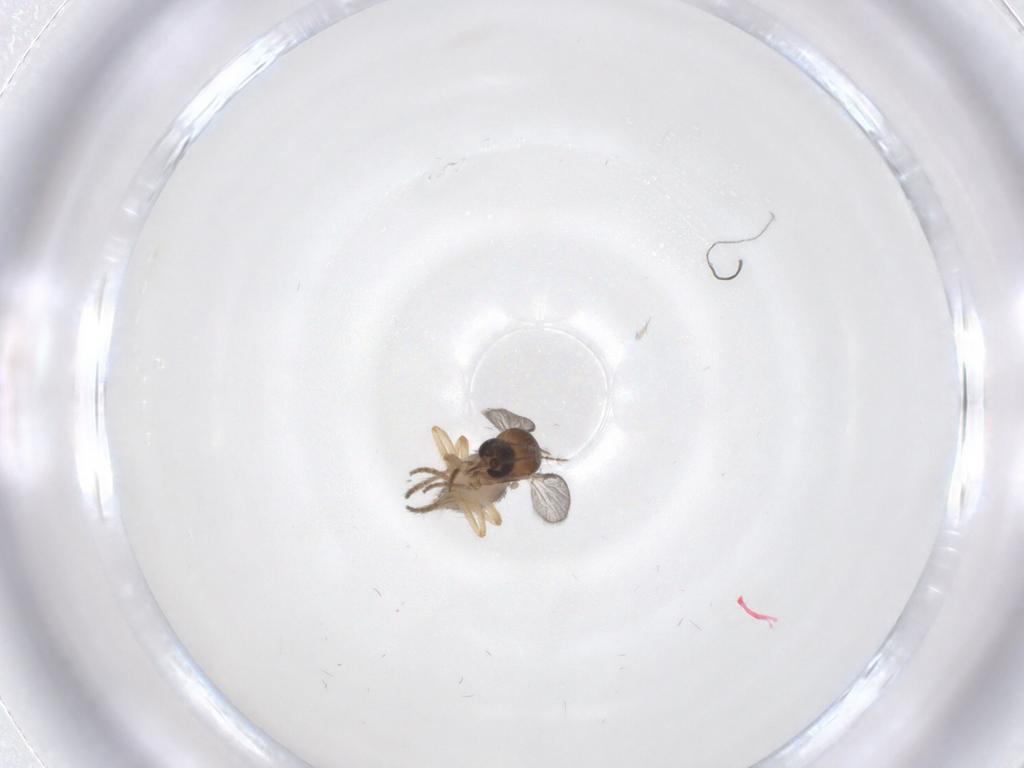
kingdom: Animalia
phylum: Arthropoda
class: Insecta
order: Diptera
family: Ceratopogonidae
